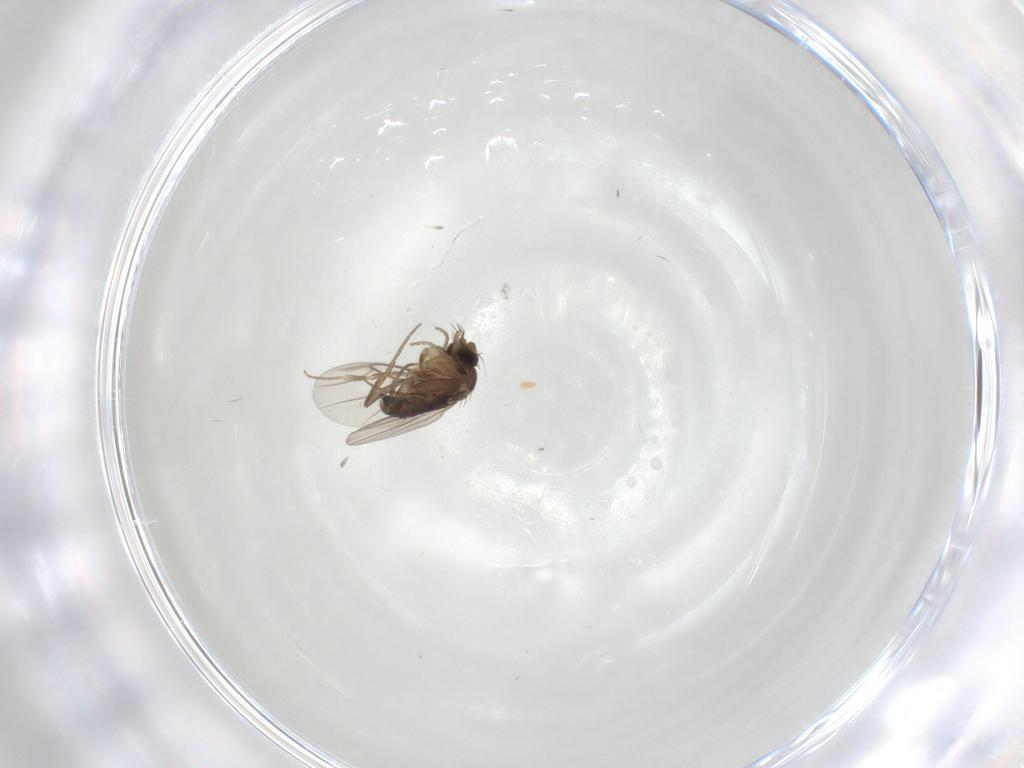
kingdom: Animalia
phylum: Arthropoda
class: Insecta
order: Diptera
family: Phoridae
